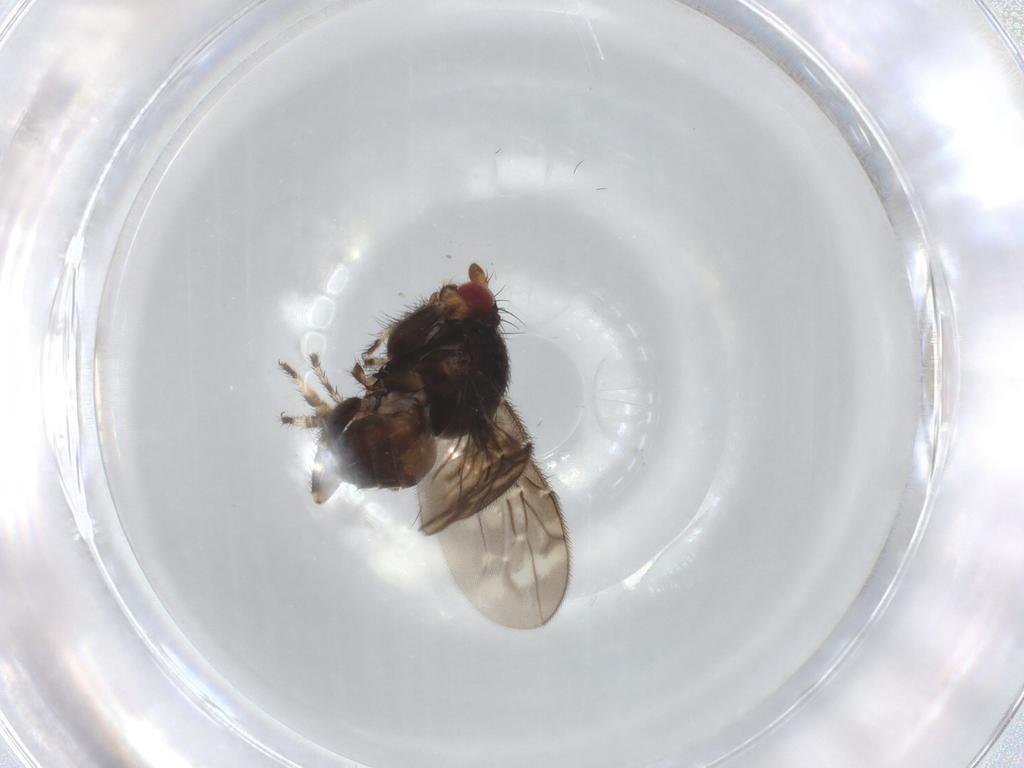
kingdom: Animalia
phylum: Arthropoda
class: Insecta
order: Diptera
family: Sphaeroceridae
